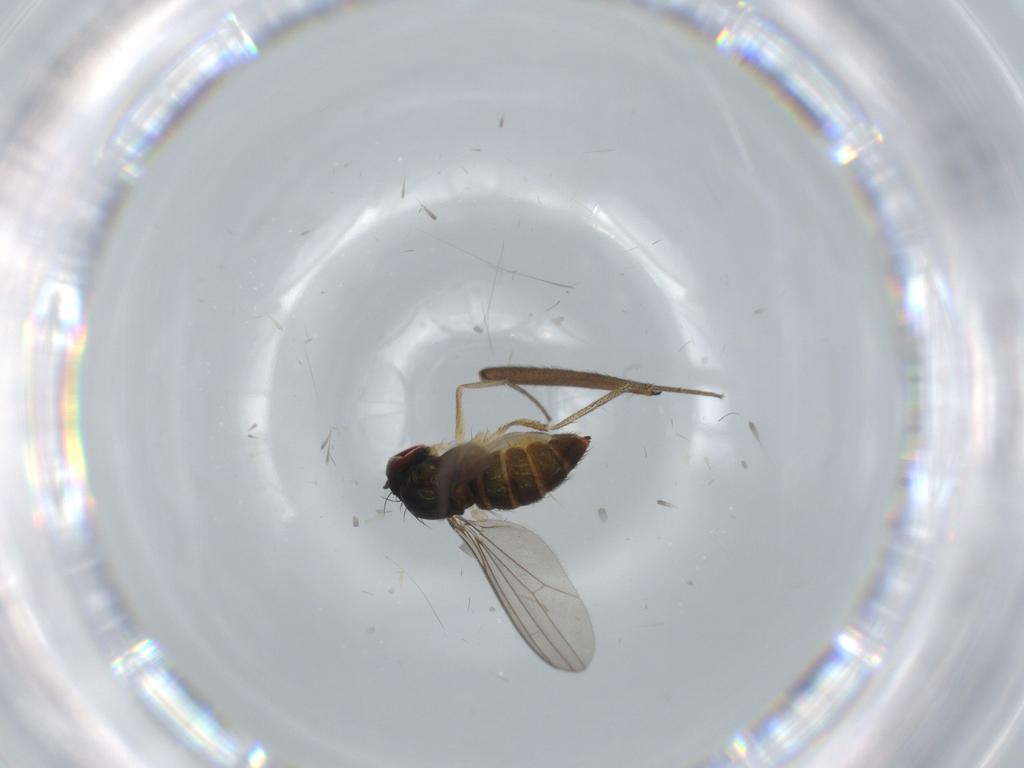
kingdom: Animalia
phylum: Arthropoda
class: Insecta
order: Diptera
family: Sciaridae
